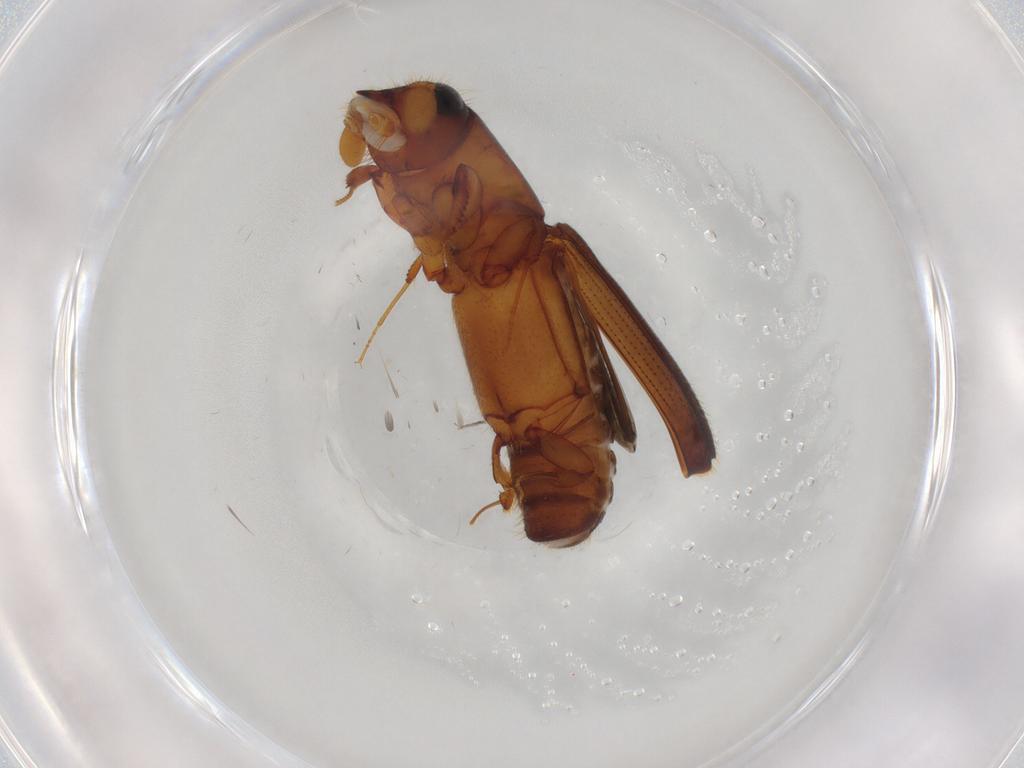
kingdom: Animalia
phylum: Arthropoda
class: Insecta
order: Coleoptera
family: Curculionidae
